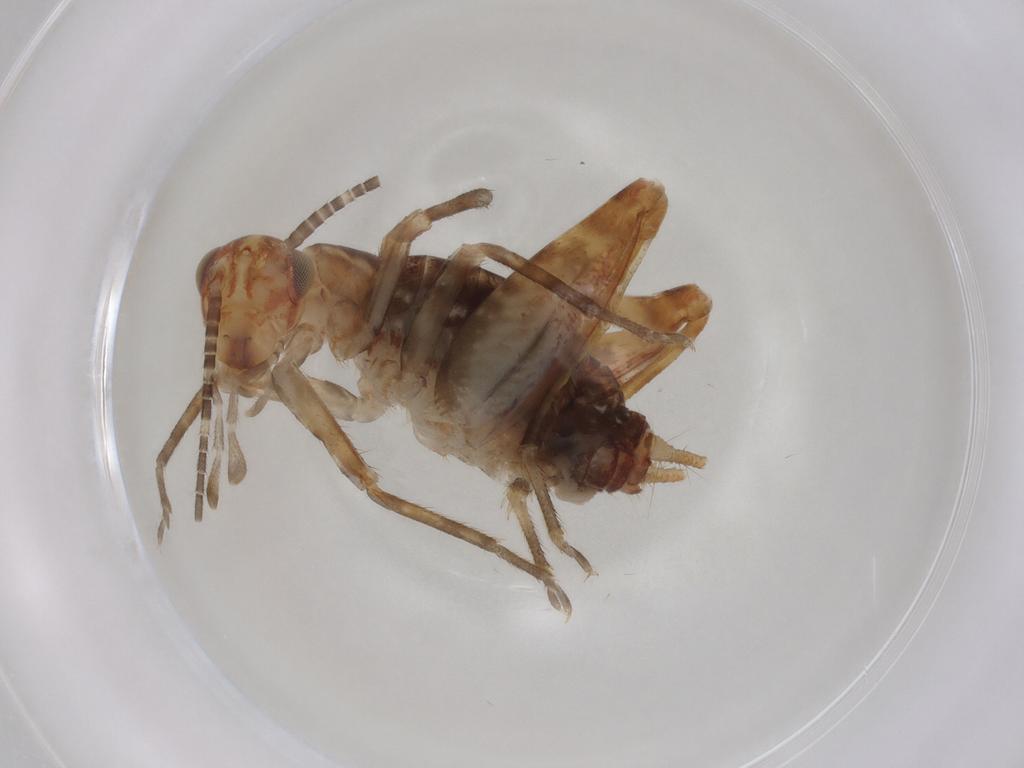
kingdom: Animalia
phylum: Arthropoda
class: Insecta
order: Orthoptera
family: Gryllidae
